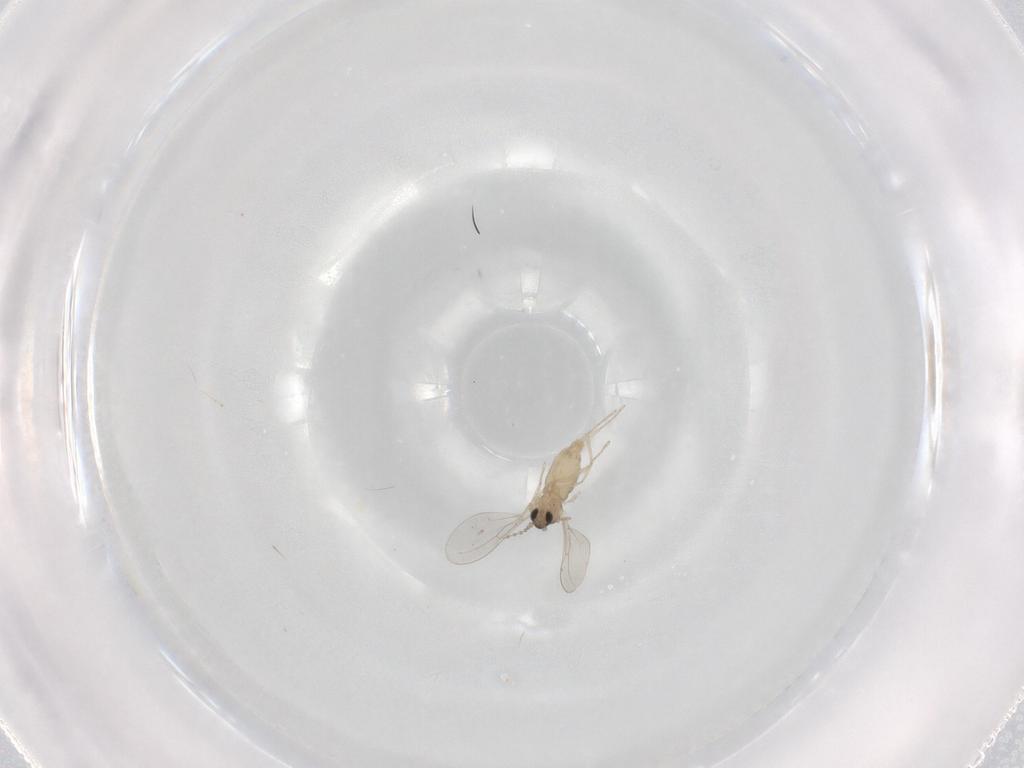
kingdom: Animalia
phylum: Arthropoda
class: Insecta
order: Diptera
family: Cecidomyiidae
